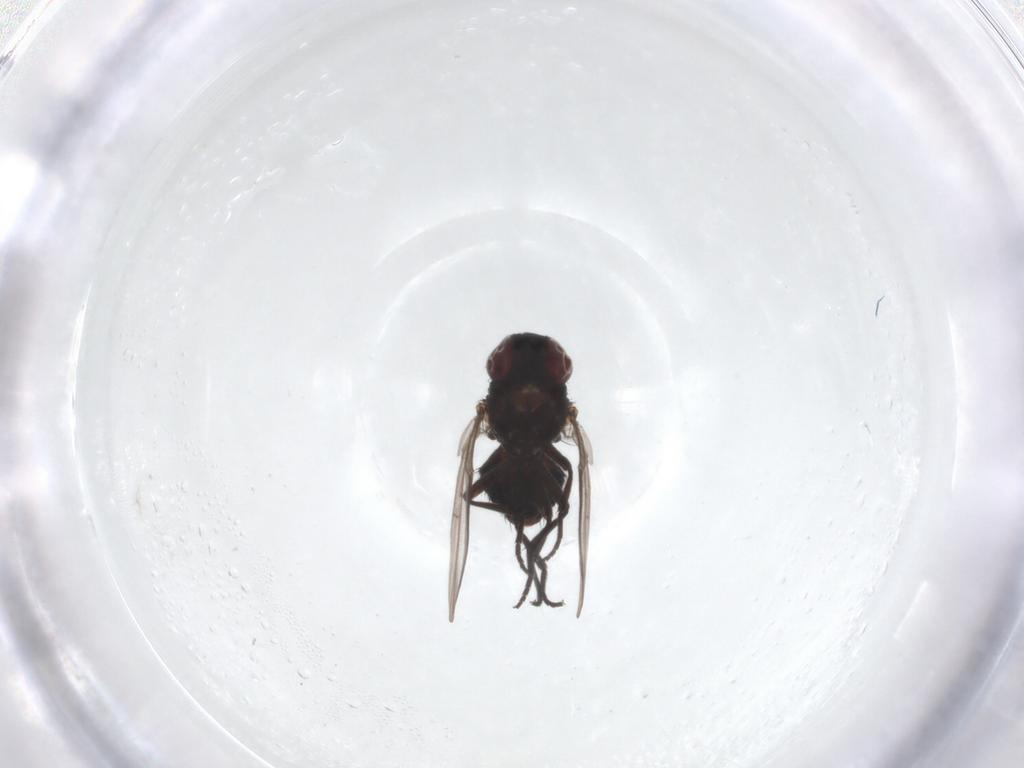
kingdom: Animalia
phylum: Arthropoda
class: Insecta
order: Diptera
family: Agromyzidae
